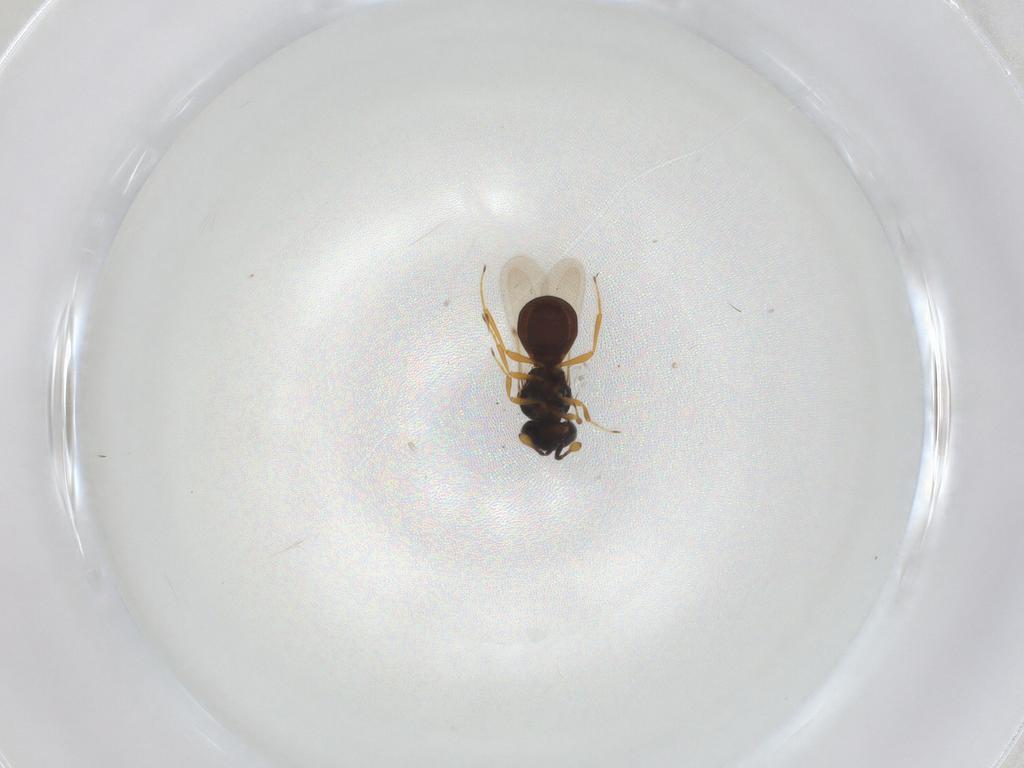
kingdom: Animalia
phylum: Arthropoda
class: Insecta
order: Hymenoptera
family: Scelionidae
